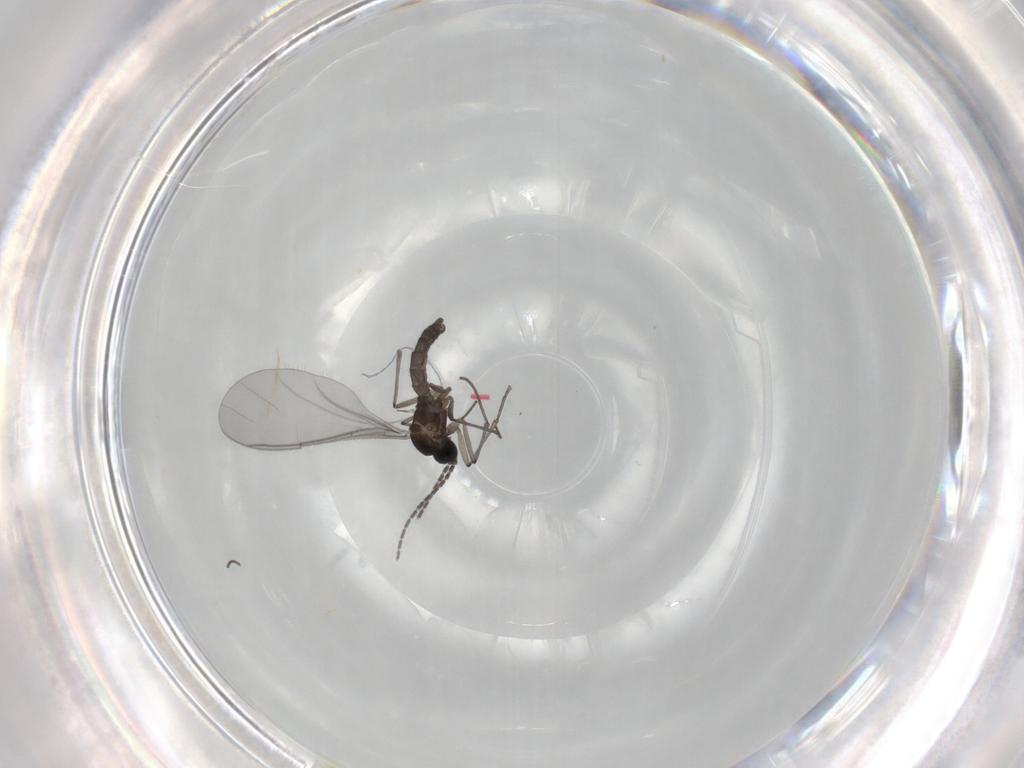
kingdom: Animalia
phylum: Arthropoda
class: Insecta
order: Diptera
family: Sciaridae
